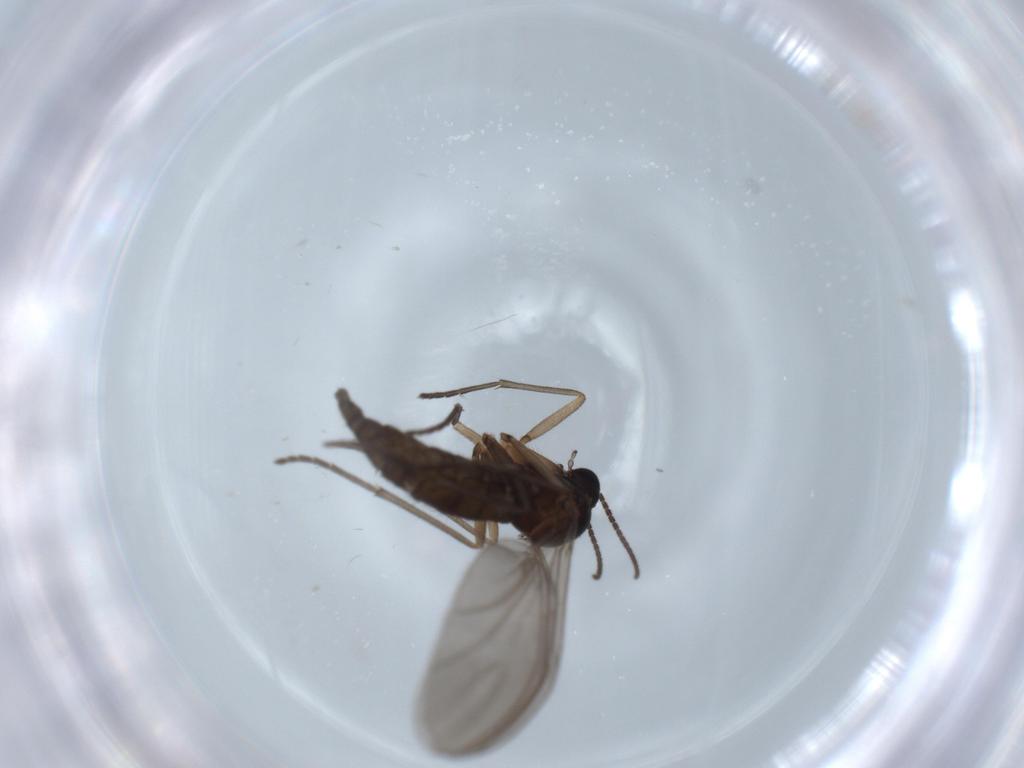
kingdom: Animalia
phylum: Arthropoda
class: Insecta
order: Diptera
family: Sciaridae
